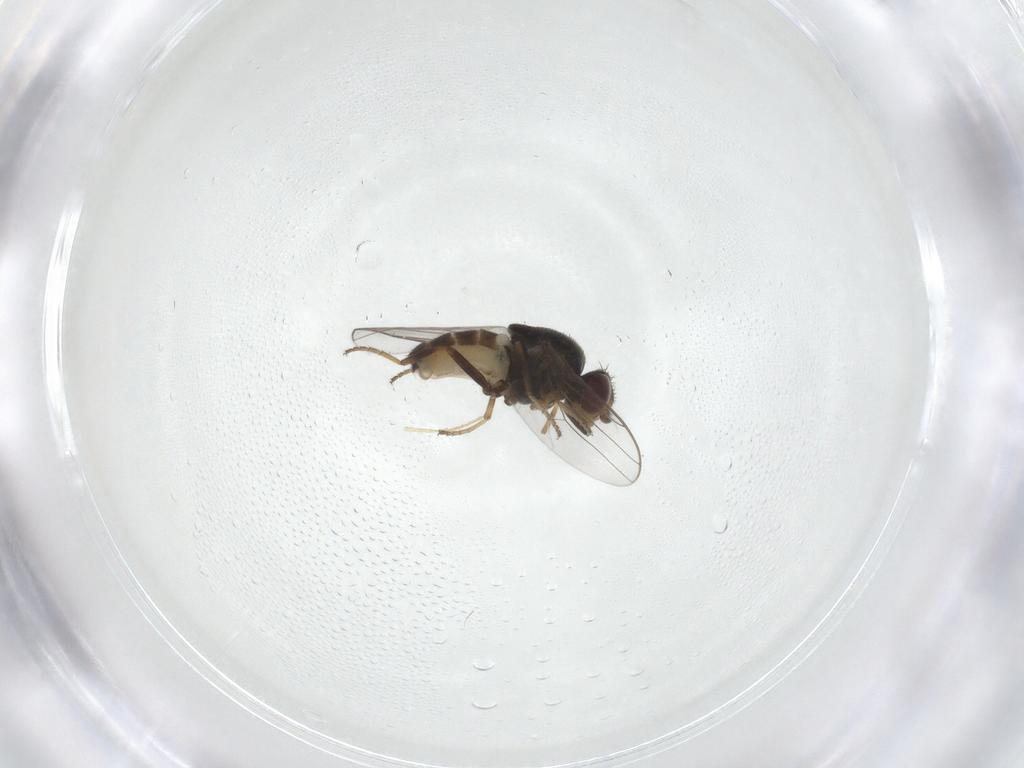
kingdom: Animalia
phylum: Arthropoda
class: Insecta
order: Diptera
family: Chloropidae
